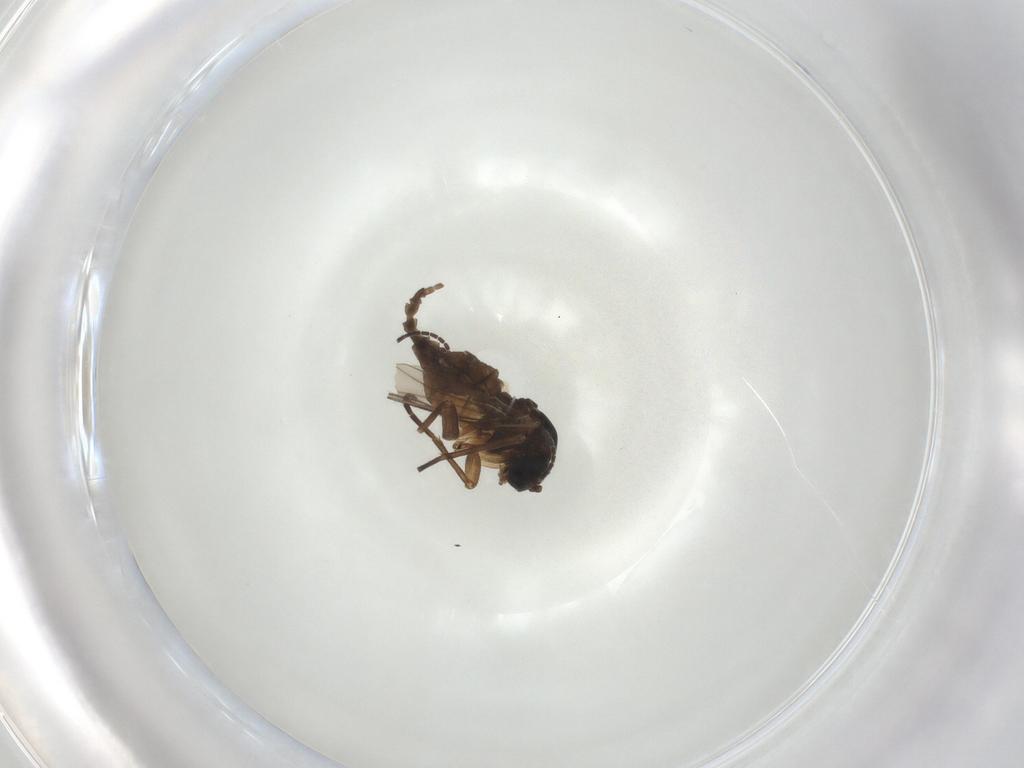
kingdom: Animalia
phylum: Arthropoda
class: Insecta
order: Diptera
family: Sciaridae
